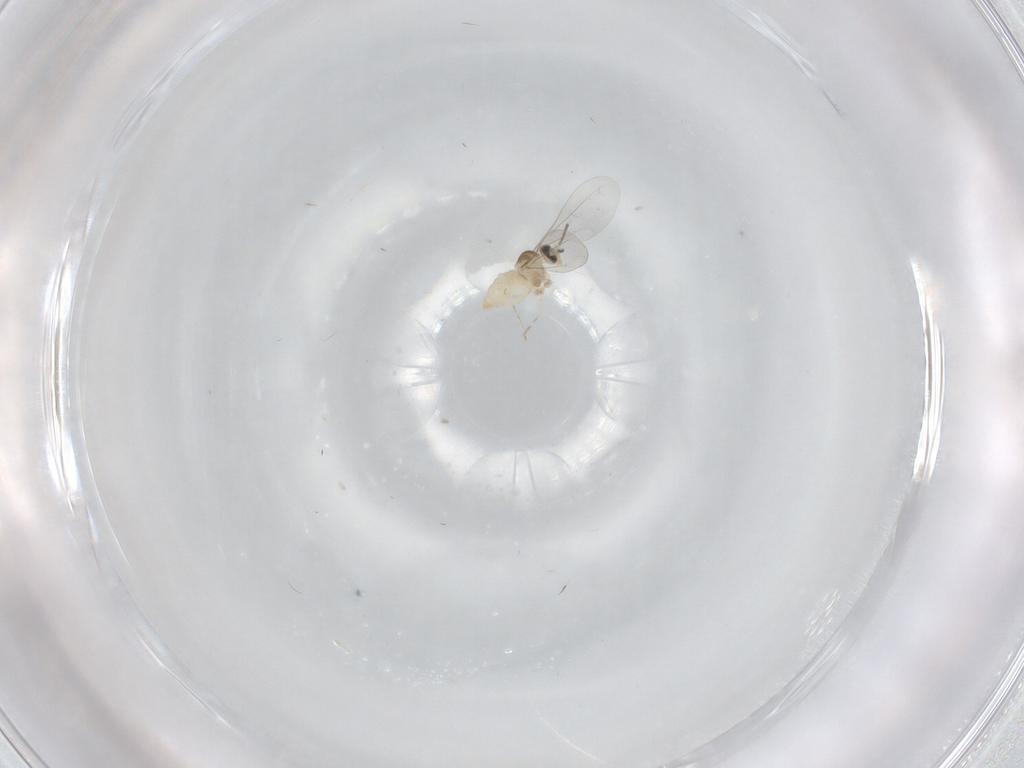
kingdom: Animalia
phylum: Arthropoda
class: Insecta
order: Diptera
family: Cecidomyiidae
